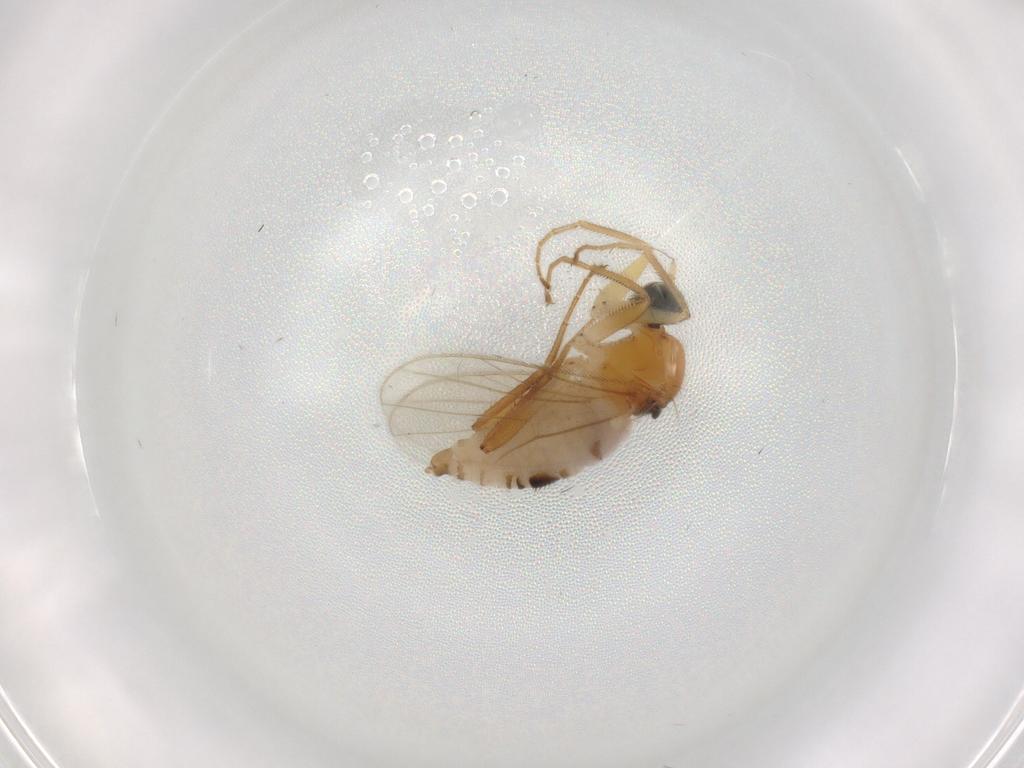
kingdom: Animalia
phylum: Arthropoda
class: Insecta
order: Diptera
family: Hybotidae
